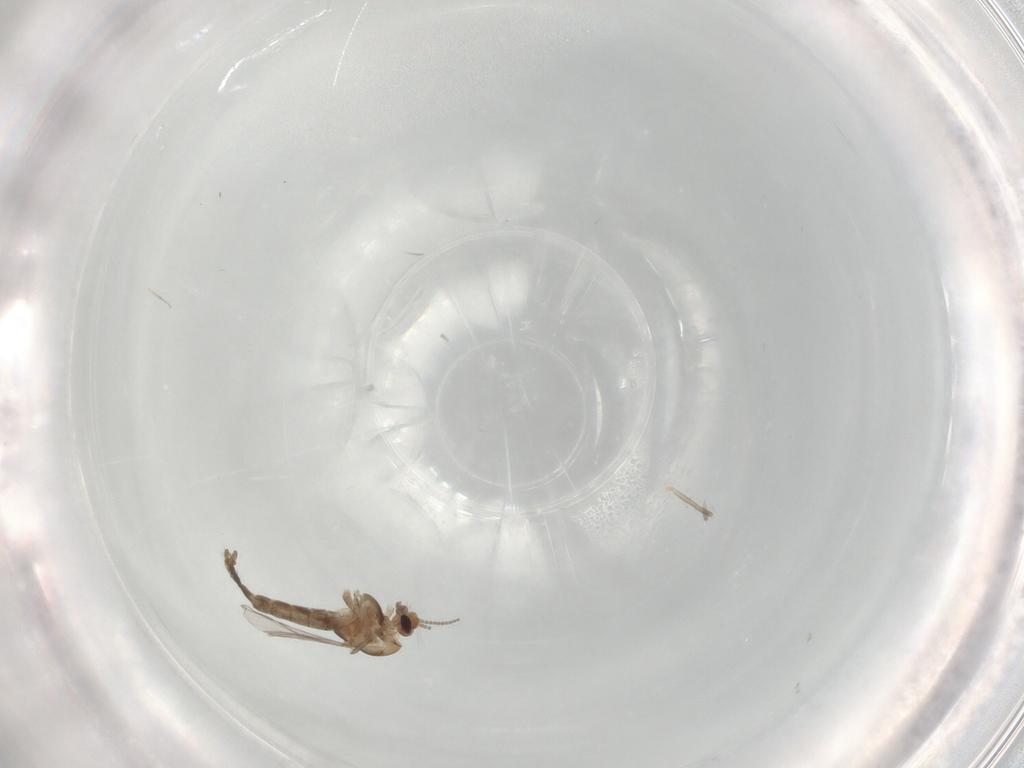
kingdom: Animalia
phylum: Arthropoda
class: Insecta
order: Diptera
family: Chironomidae
